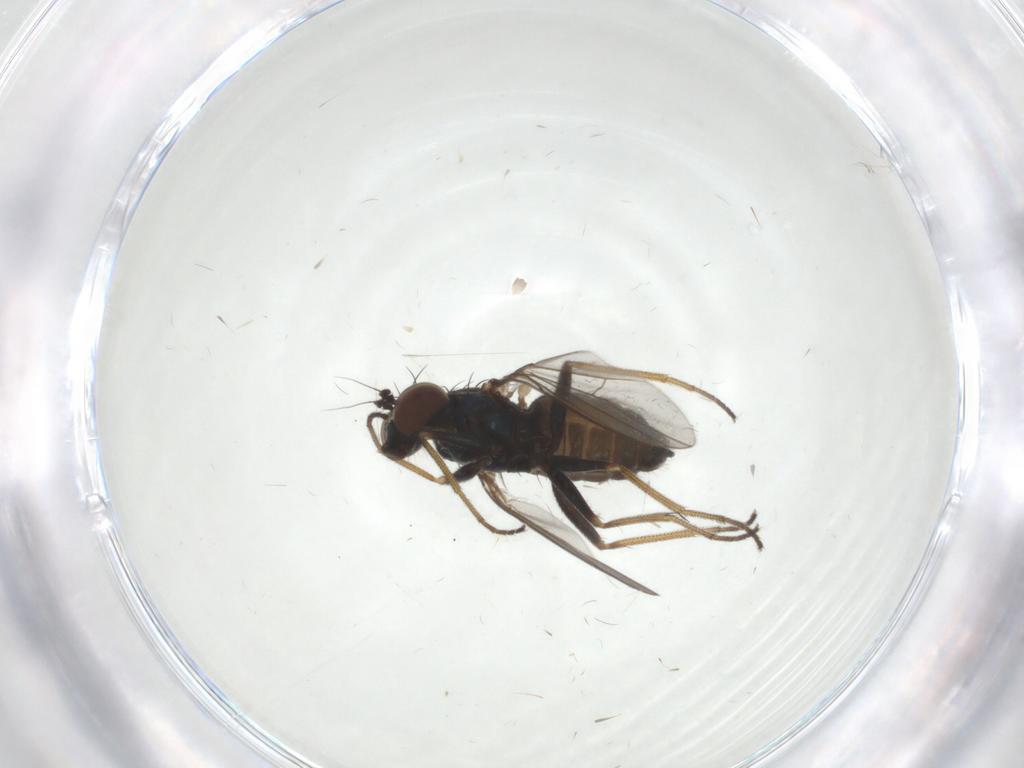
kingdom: Animalia
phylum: Arthropoda
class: Insecta
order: Diptera
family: Dolichopodidae
